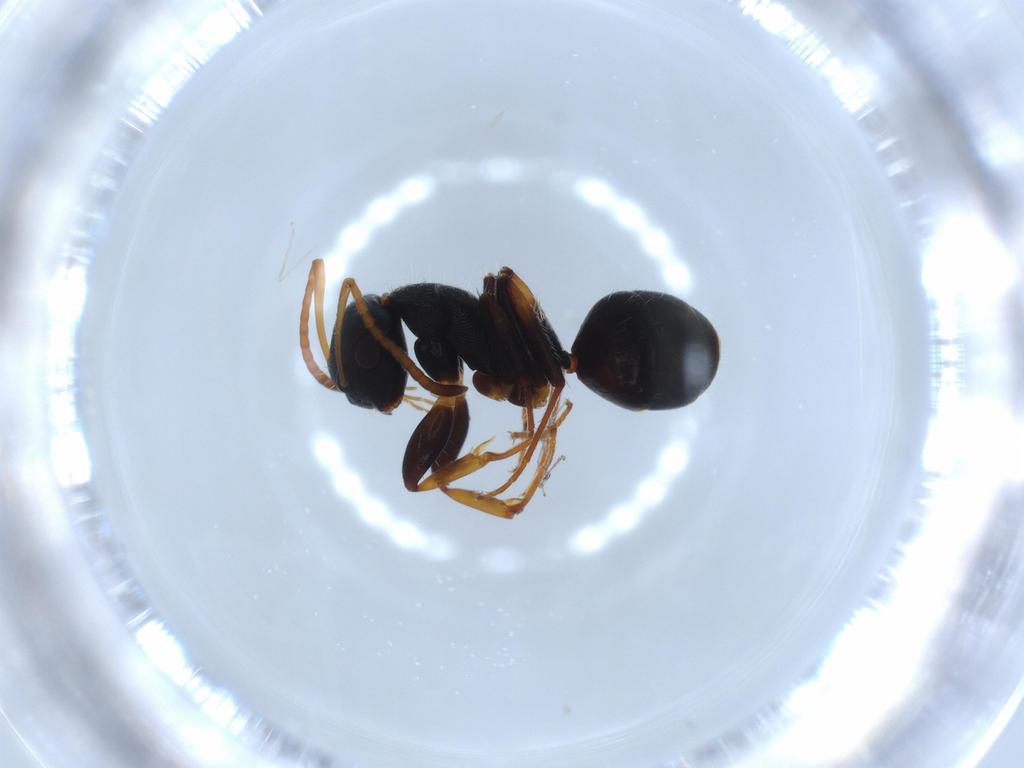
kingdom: Animalia
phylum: Arthropoda
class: Insecta
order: Hymenoptera
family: Formicidae
